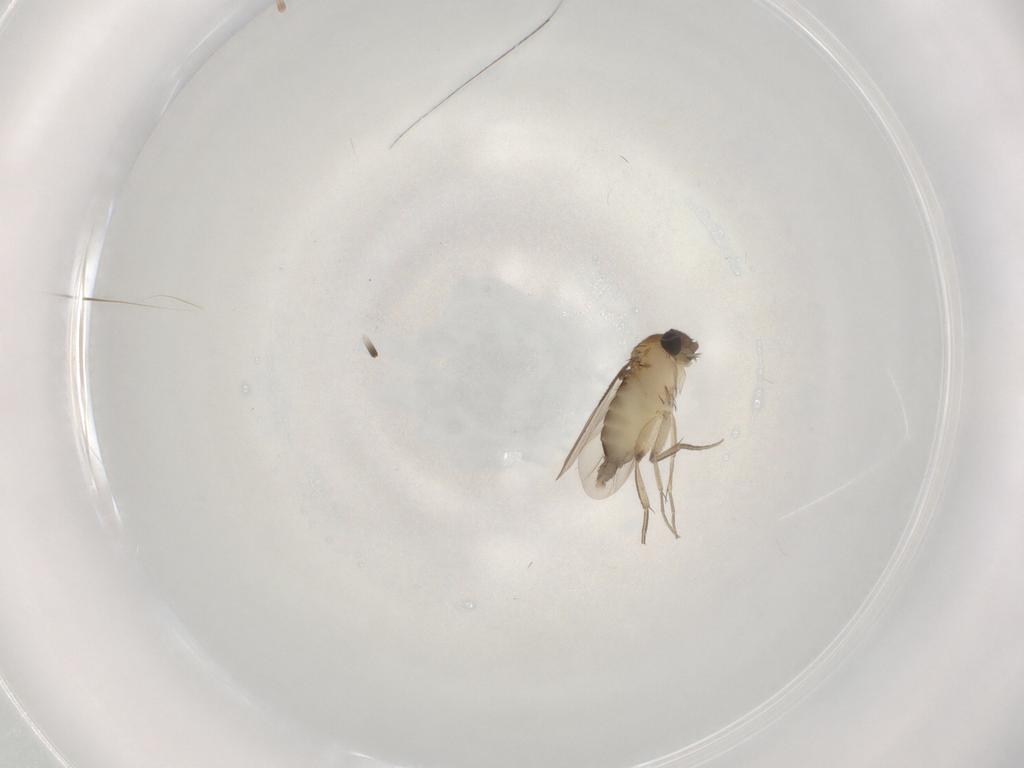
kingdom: Animalia
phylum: Arthropoda
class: Insecta
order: Diptera
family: Phoridae
